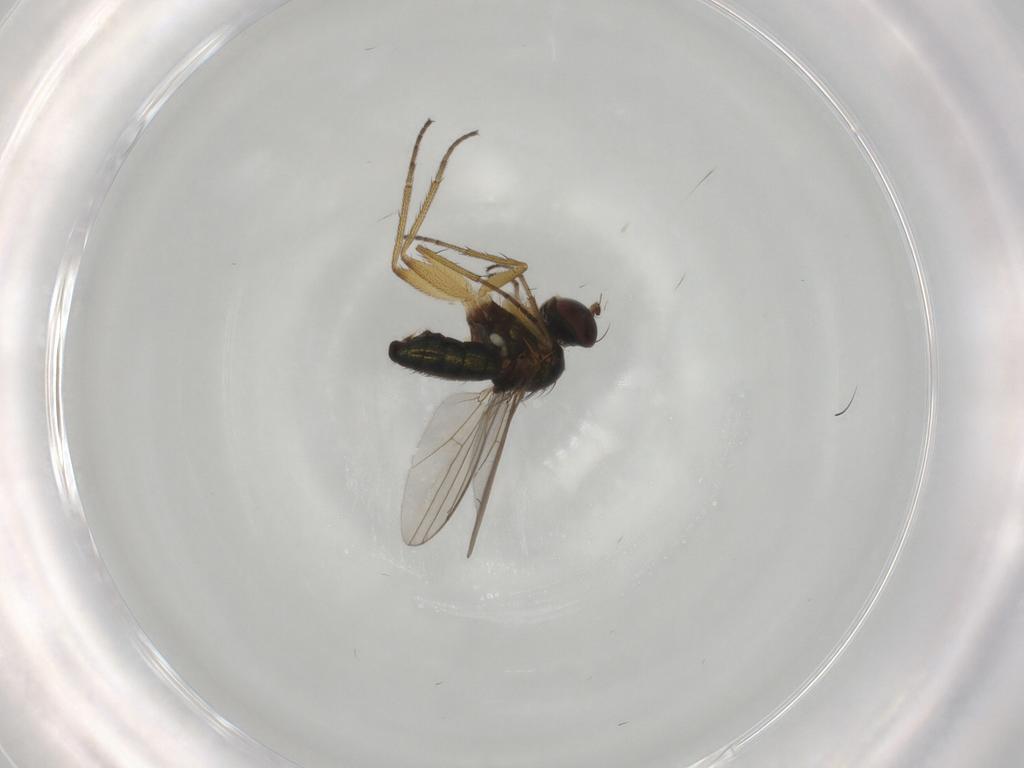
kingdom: Animalia
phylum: Arthropoda
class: Insecta
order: Diptera
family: Dolichopodidae
